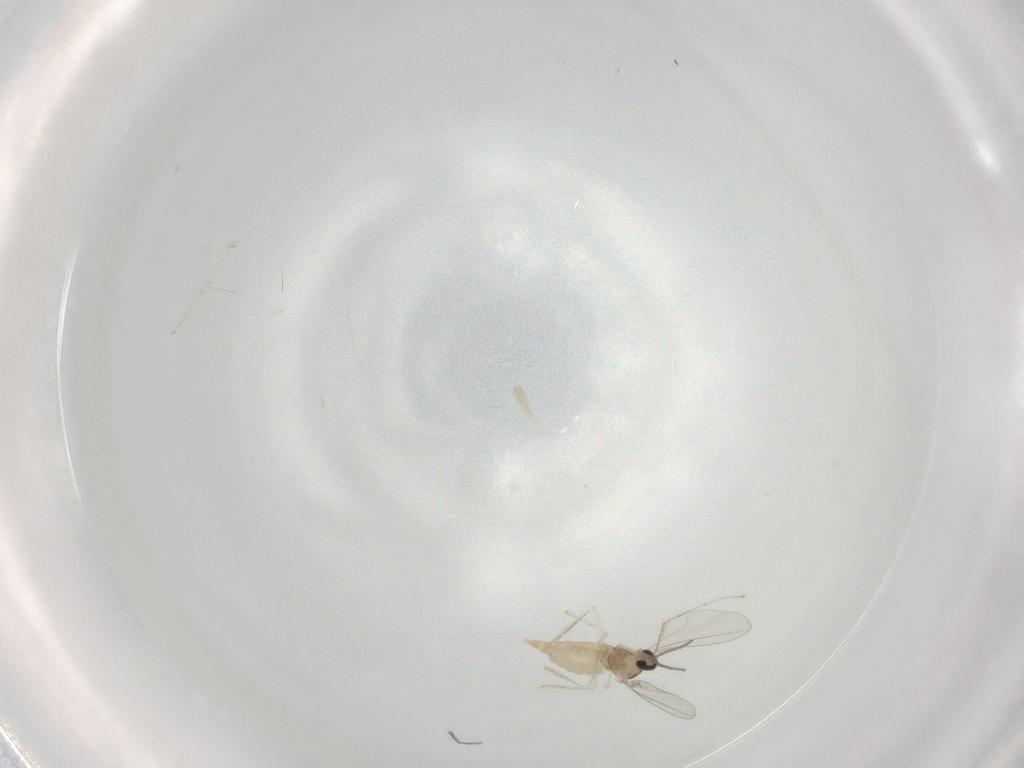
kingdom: Animalia
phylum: Arthropoda
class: Insecta
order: Diptera
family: Cecidomyiidae
